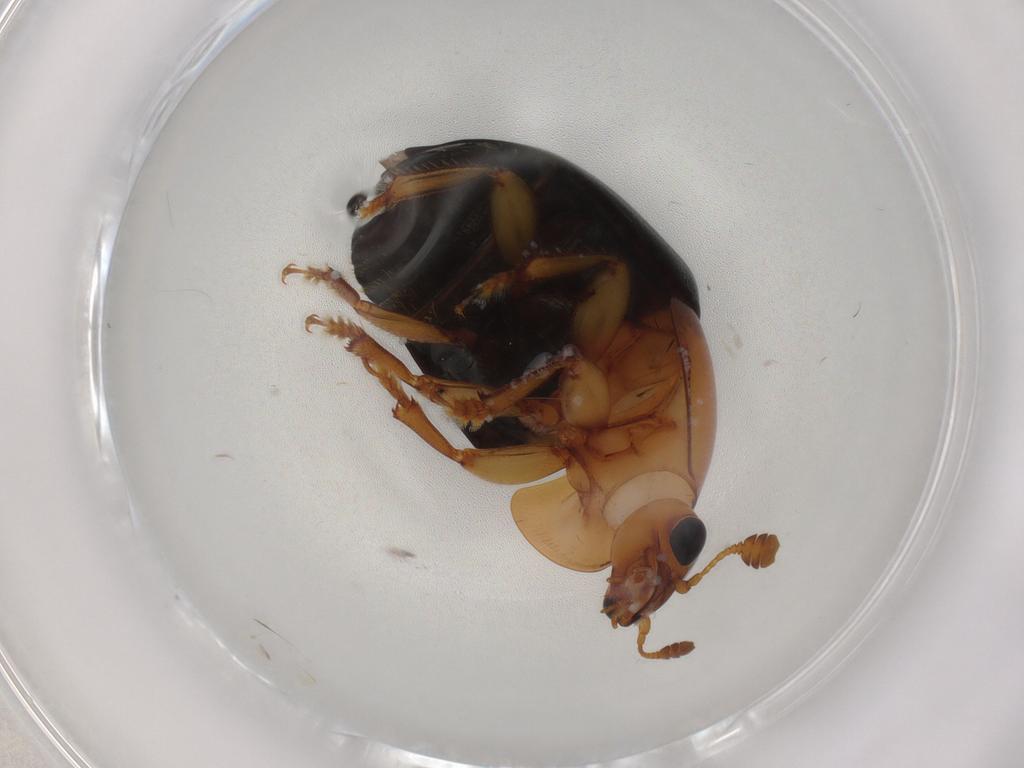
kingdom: Animalia
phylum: Arthropoda
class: Insecta
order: Coleoptera
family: Nitidulidae
